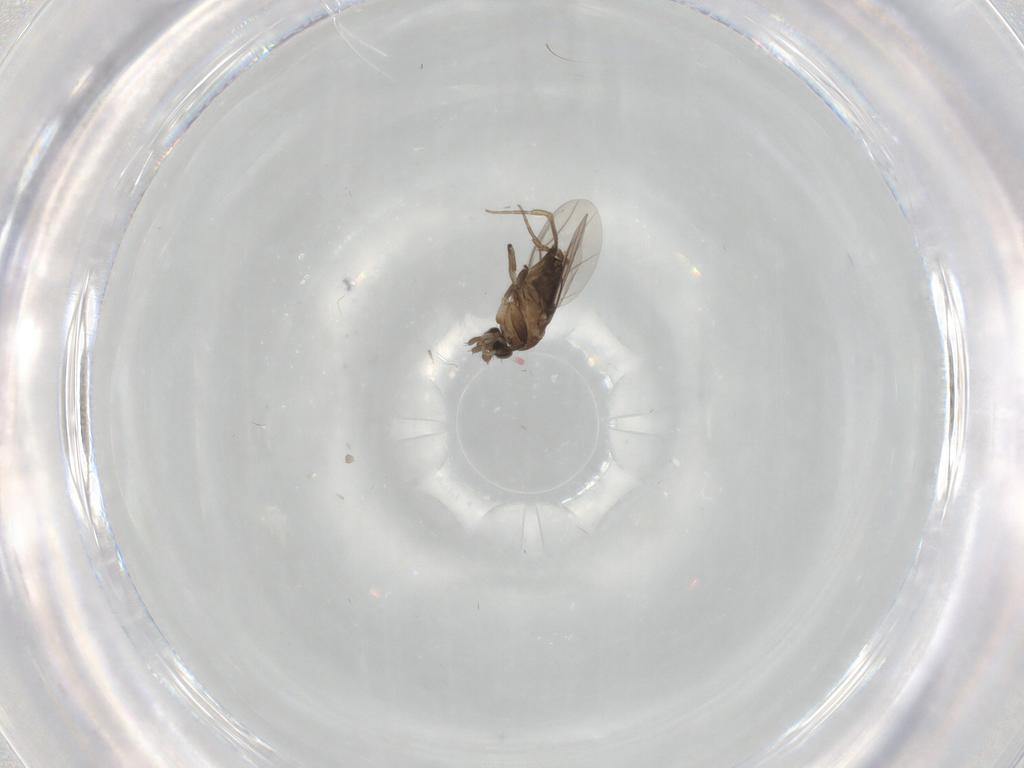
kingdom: Animalia
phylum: Arthropoda
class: Insecta
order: Diptera
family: Phoridae
